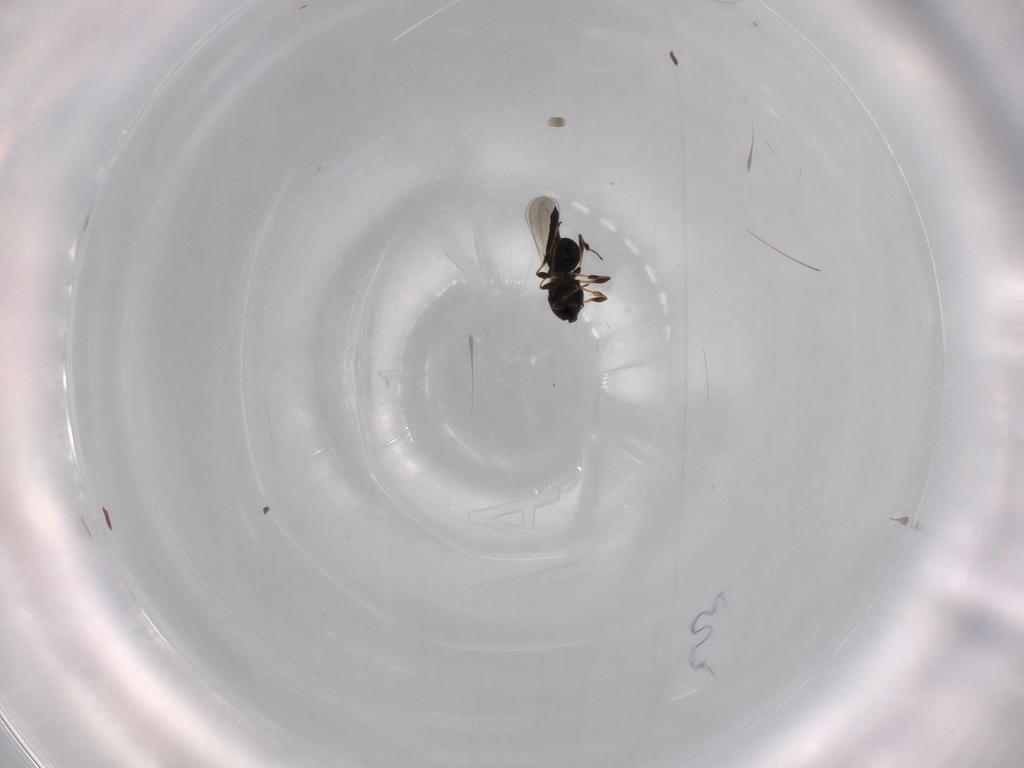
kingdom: Animalia
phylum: Arthropoda
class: Insecta
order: Hymenoptera
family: Platygastridae
